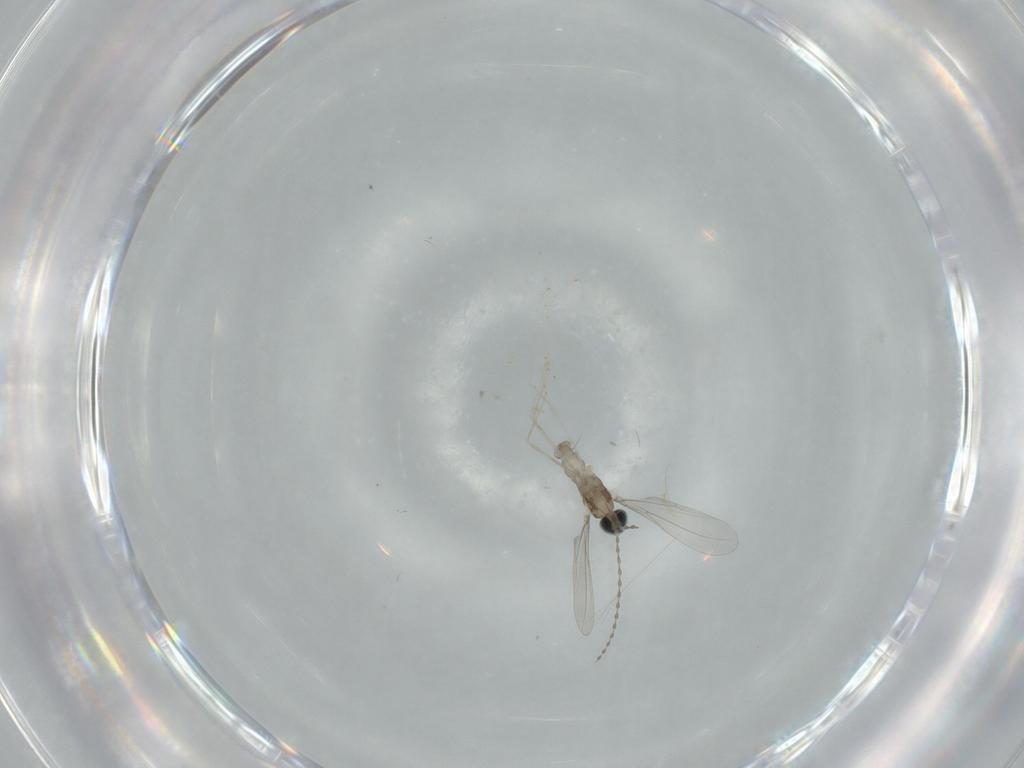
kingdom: Animalia
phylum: Arthropoda
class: Insecta
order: Diptera
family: Cecidomyiidae
